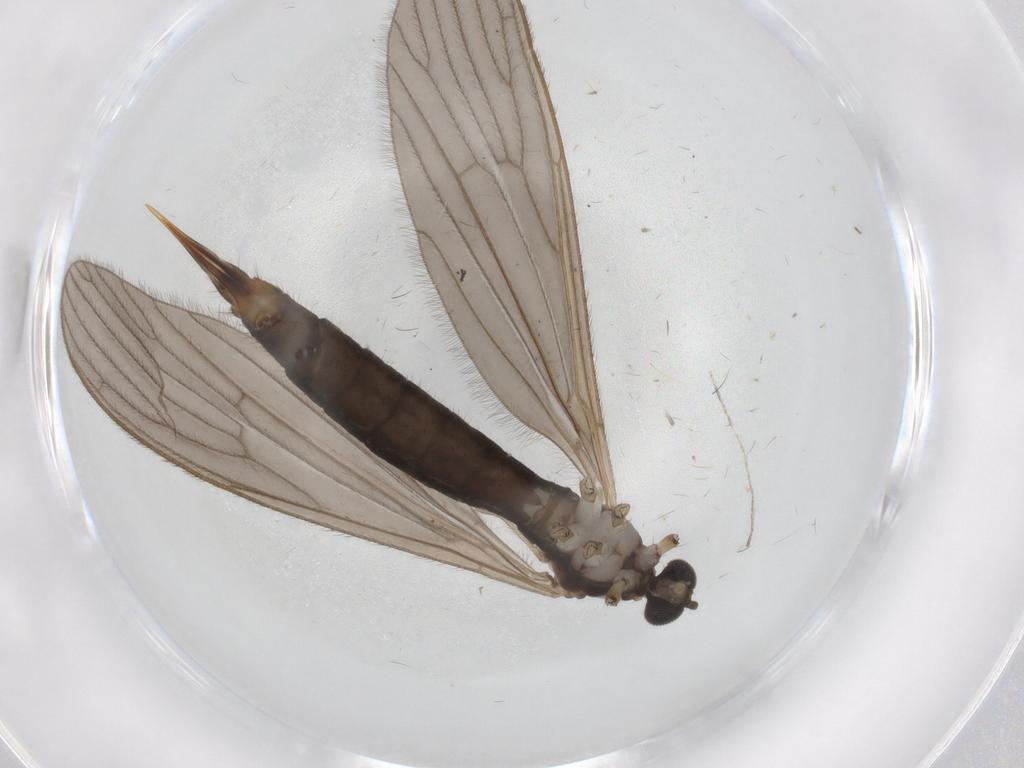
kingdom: Animalia
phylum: Arthropoda
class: Insecta
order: Diptera
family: Limoniidae
